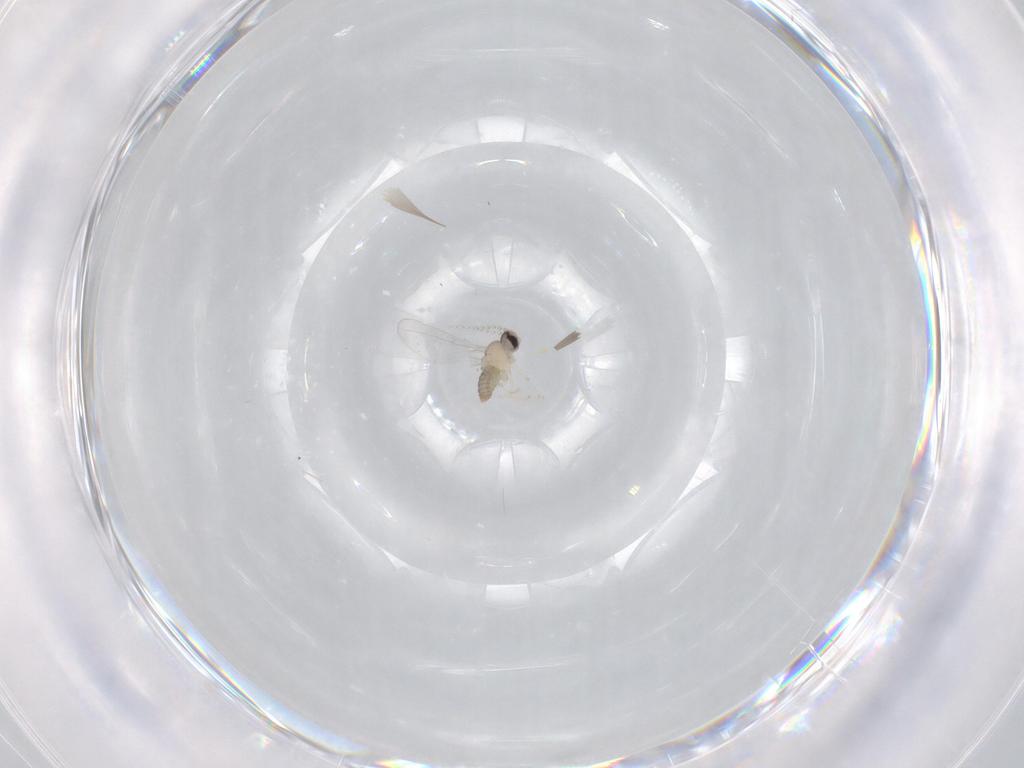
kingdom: Animalia
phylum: Arthropoda
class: Insecta
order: Diptera
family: Cecidomyiidae
